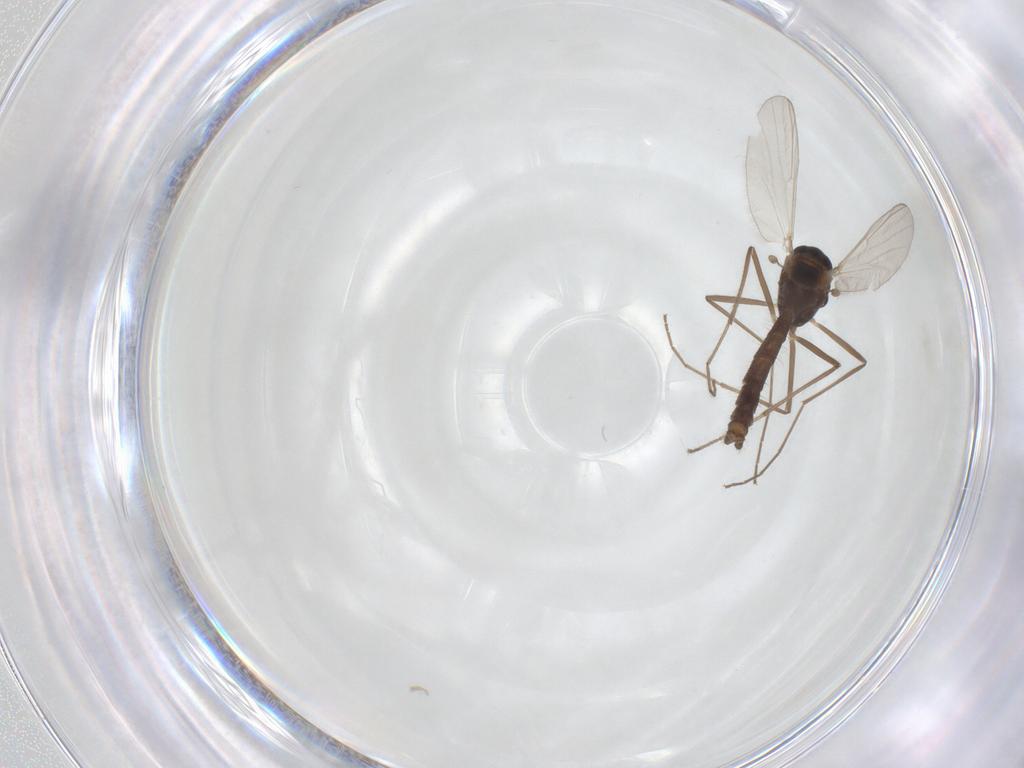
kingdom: Animalia
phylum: Arthropoda
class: Insecta
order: Diptera
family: Chironomidae
